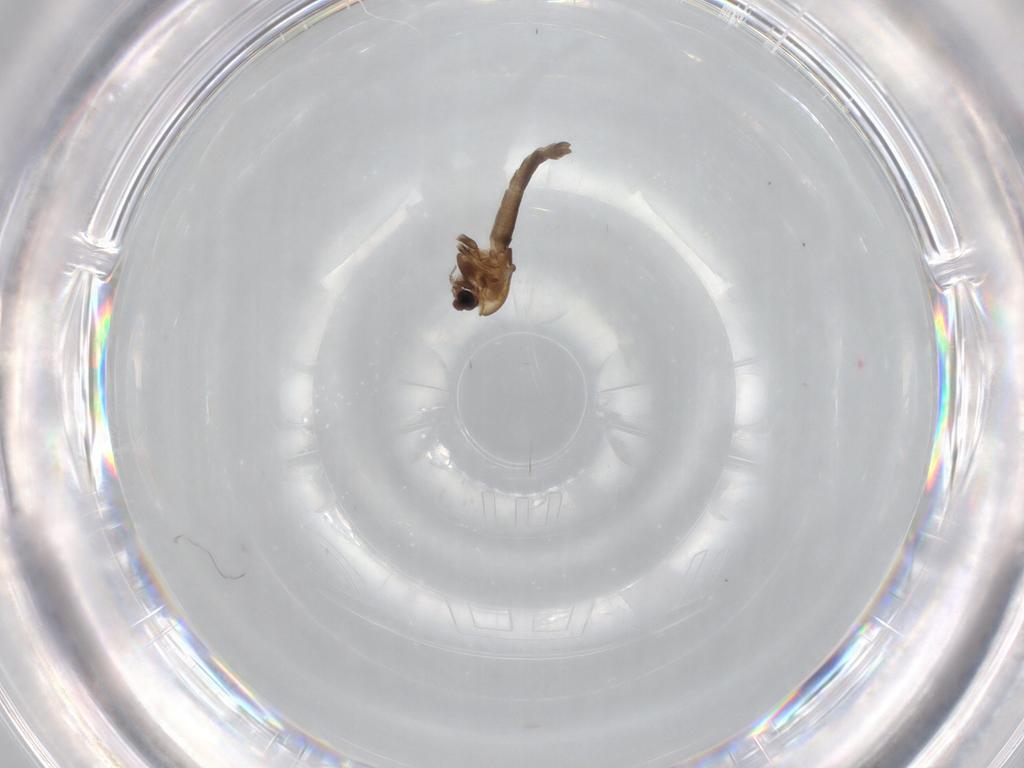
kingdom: Animalia
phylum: Arthropoda
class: Insecta
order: Diptera
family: Chironomidae
